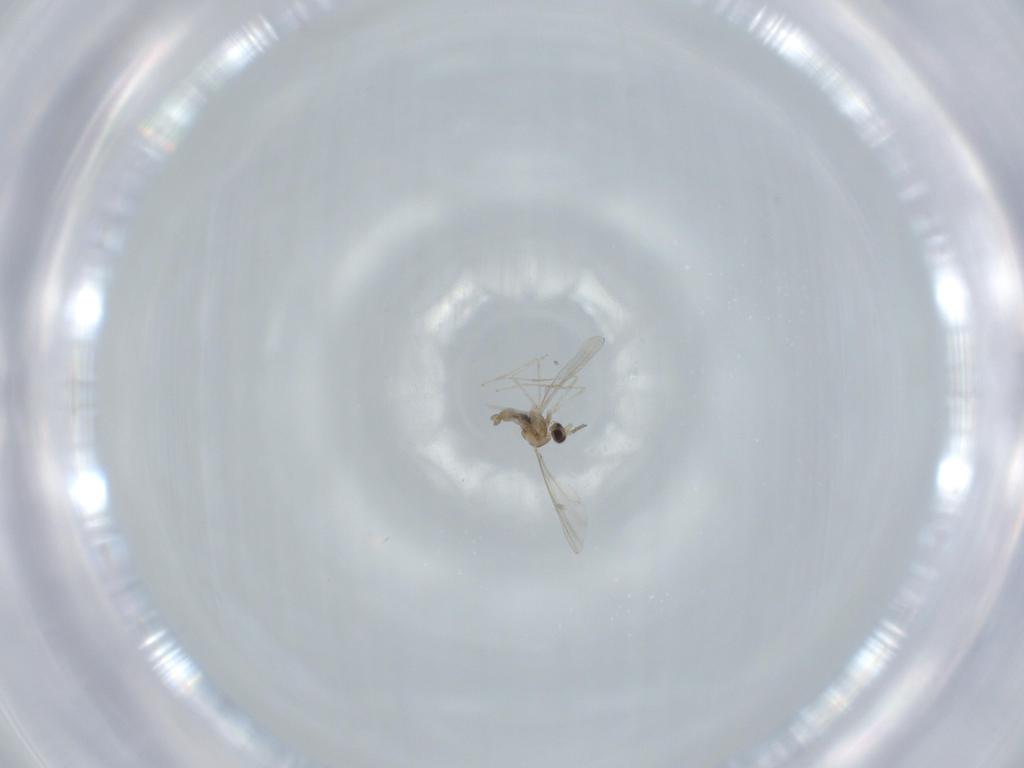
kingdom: Animalia
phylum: Arthropoda
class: Insecta
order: Diptera
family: Cecidomyiidae
